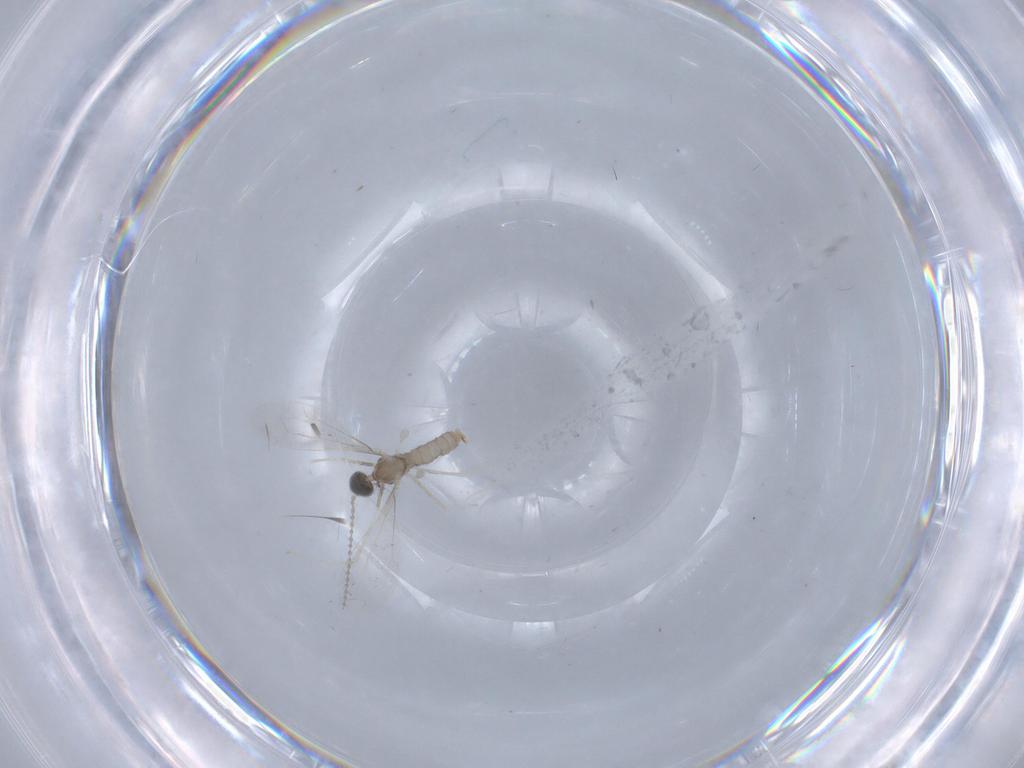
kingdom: Animalia
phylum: Arthropoda
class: Insecta
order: Diptera
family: Cecidomyiidae
